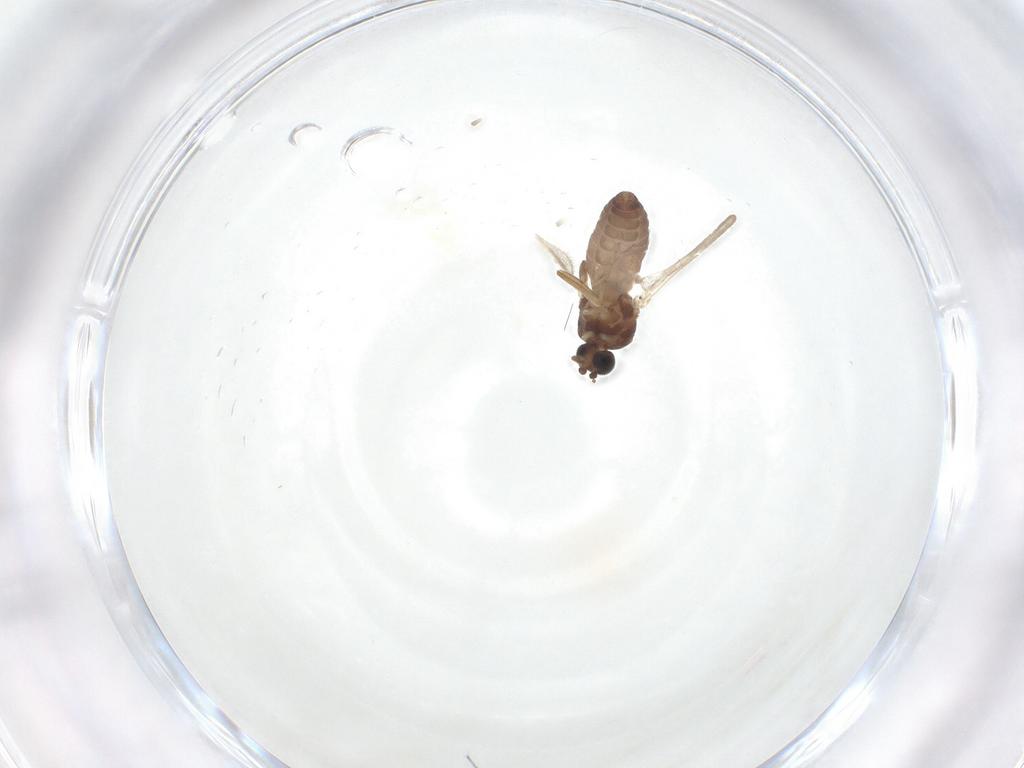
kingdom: Animalia
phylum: Arthropoda
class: Insecta
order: Diptera
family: Ceratopogonidae
